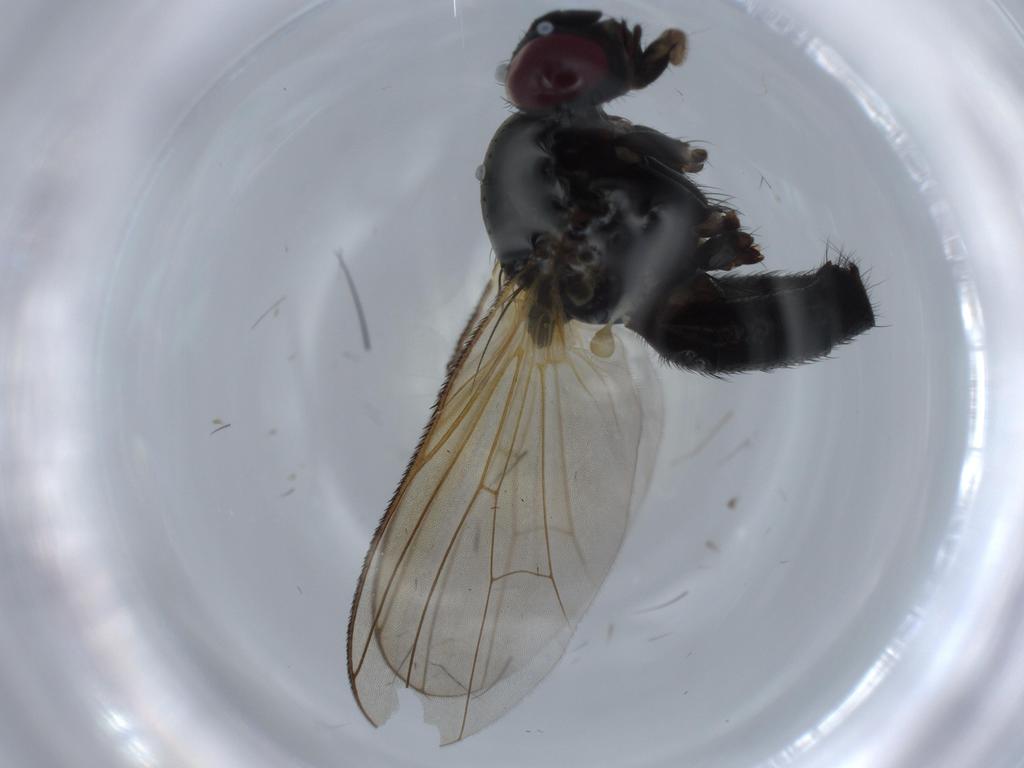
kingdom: Animalia
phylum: Arthropoda
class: Insecta
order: Diptera
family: Fannia
